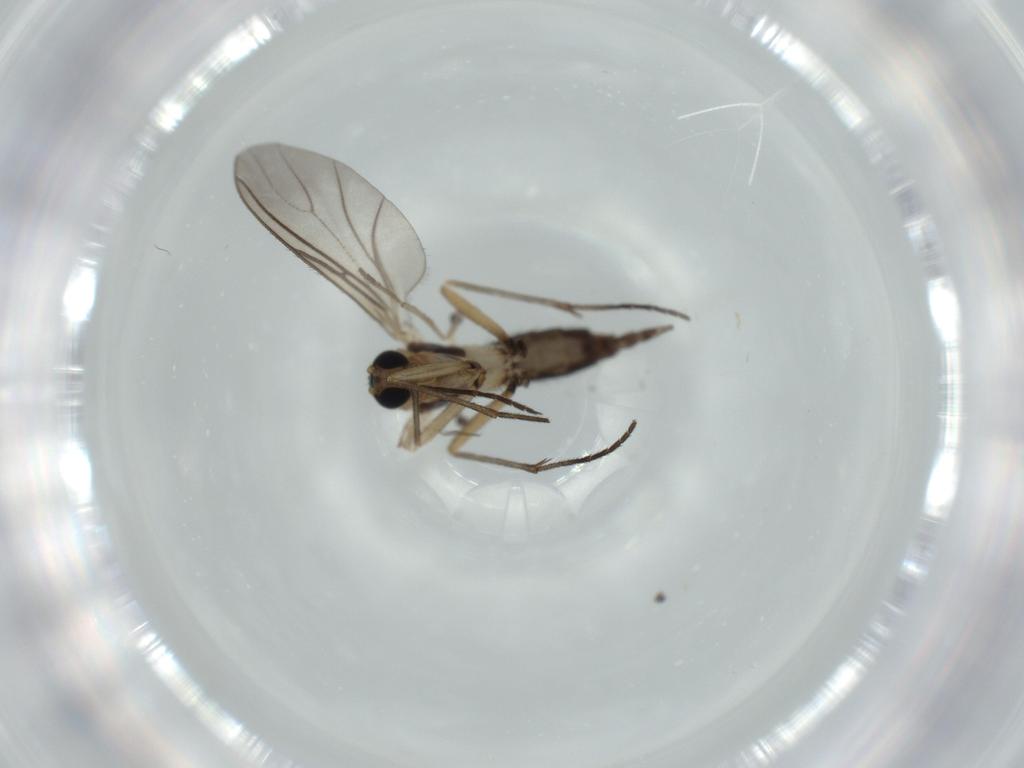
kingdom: Animalia
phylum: Arthropoda
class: Insecta
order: Diptera
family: Sciaridae
